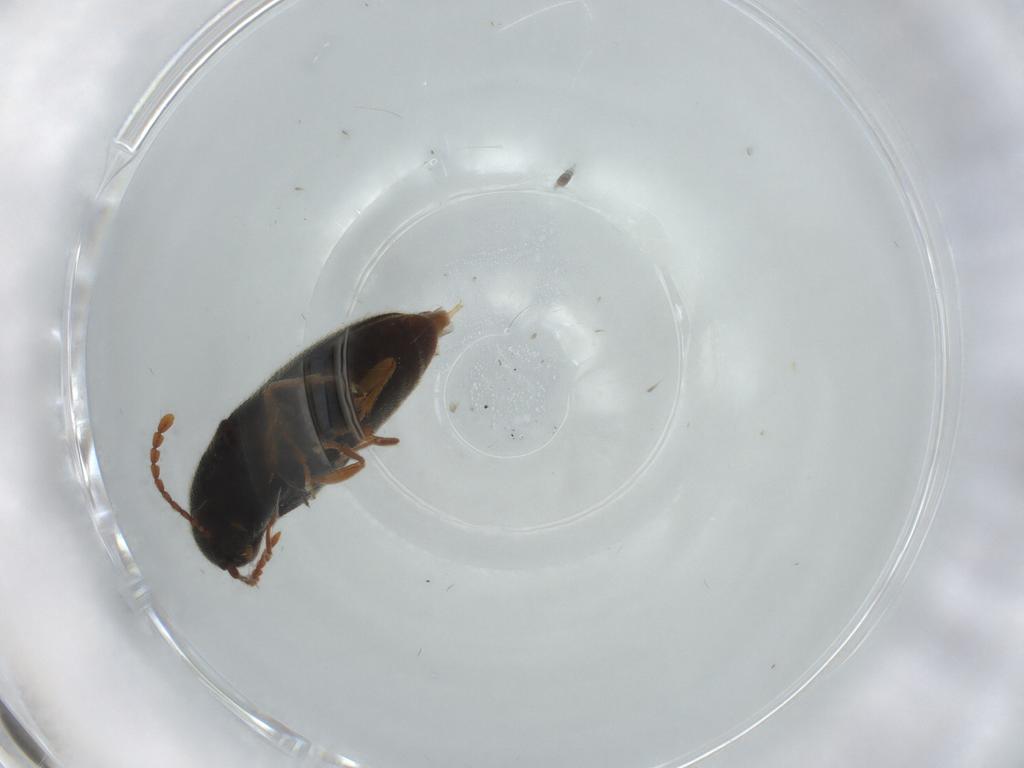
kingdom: Animalia
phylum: Arthropoda
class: Insecta
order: Coleoptera
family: Elateridae
